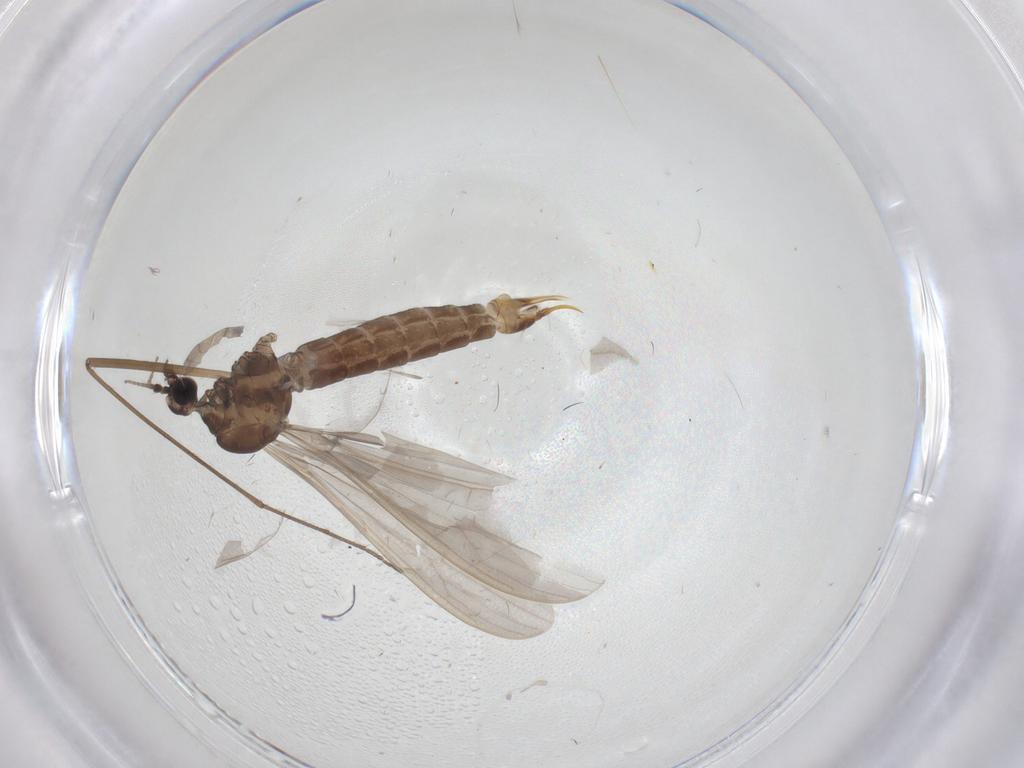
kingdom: Animalia
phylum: Arthropoda
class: Insecta
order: Diptera
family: Limoniidae
